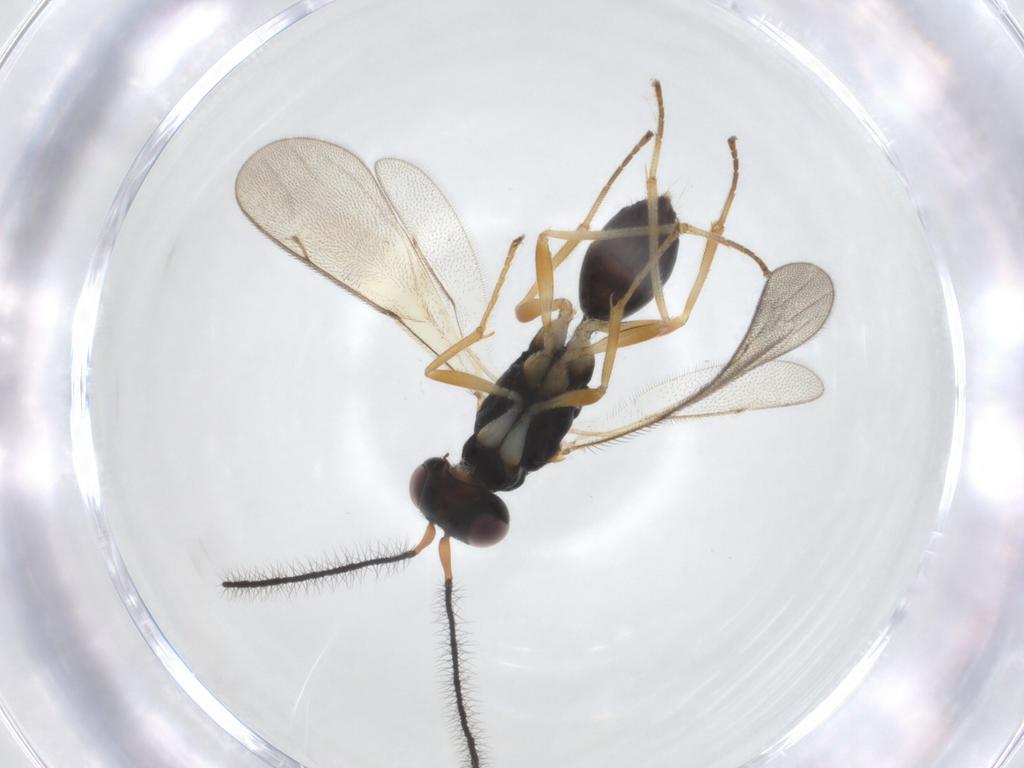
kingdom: Animalia
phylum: Arthropoda
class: Insecta
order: Hymenoptera
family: Braconidae
